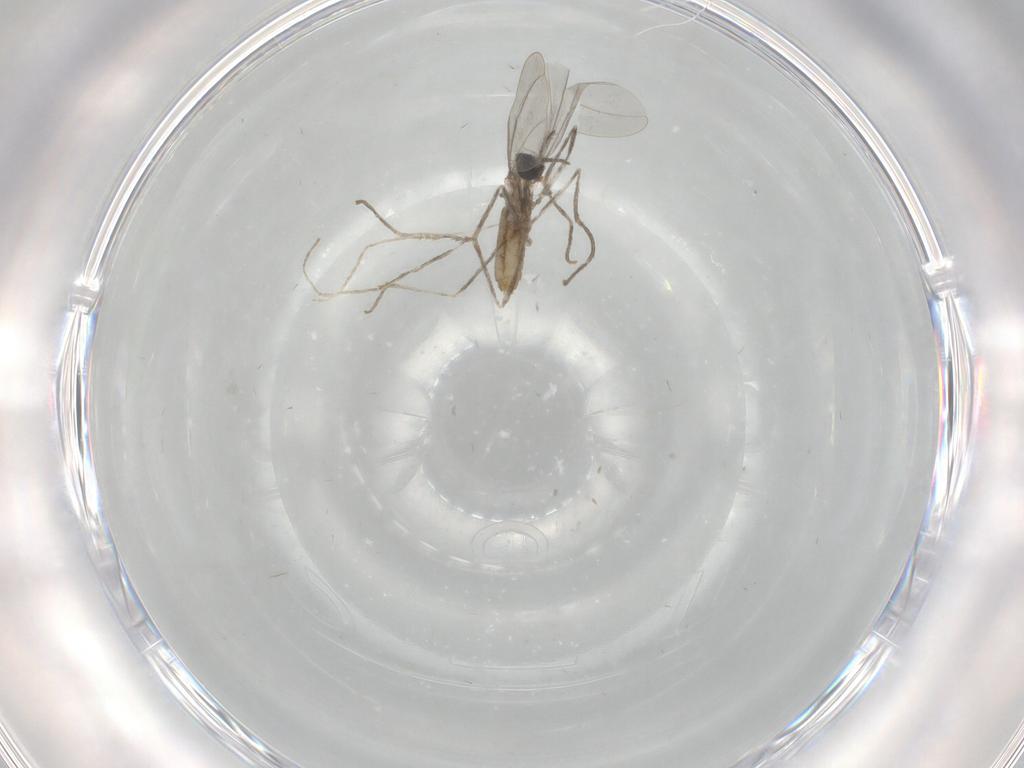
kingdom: Animalia
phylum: Arthropoda
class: Insecta
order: Diptera
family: Cecidomyiidae
